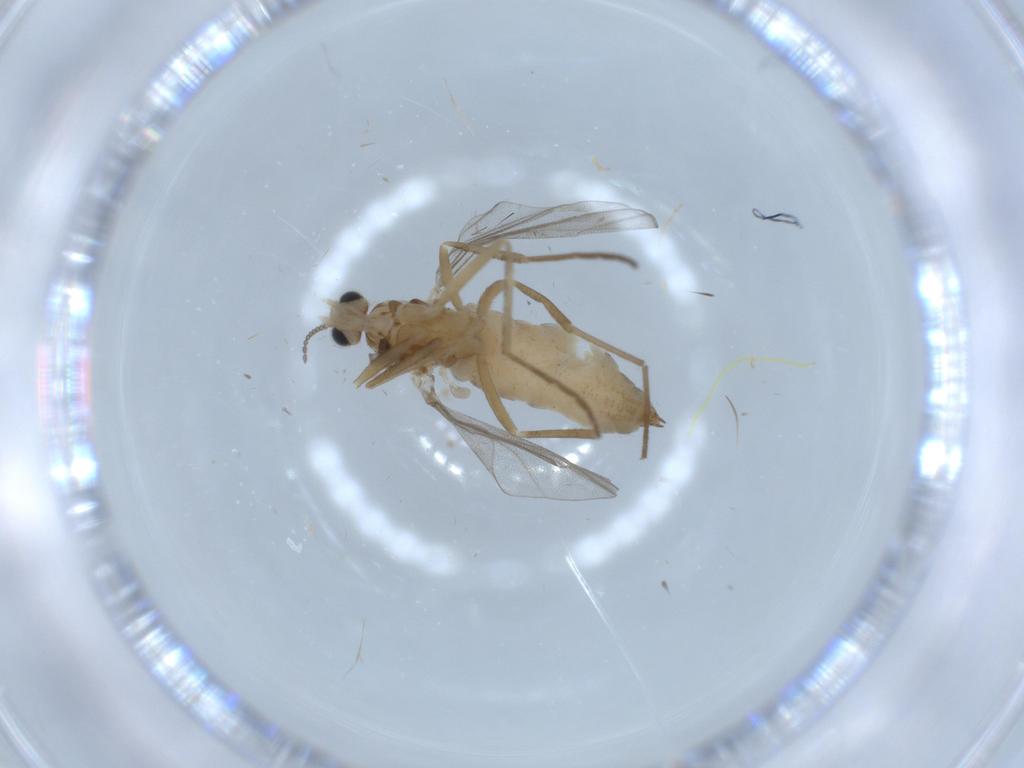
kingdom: Animalia
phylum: Arthropoda
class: Insecta
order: Diptera
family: Cecidomyiidae
